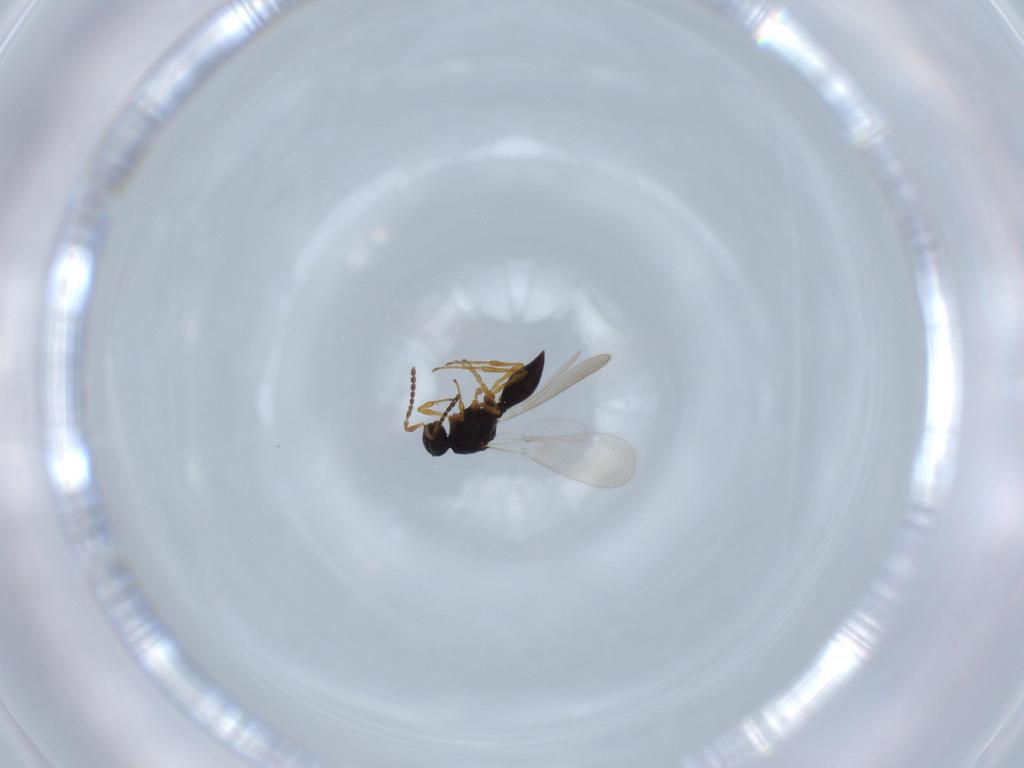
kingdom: Animalia
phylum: Arthropoda
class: Insecta
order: Diptera
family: Mythicomyiidae
